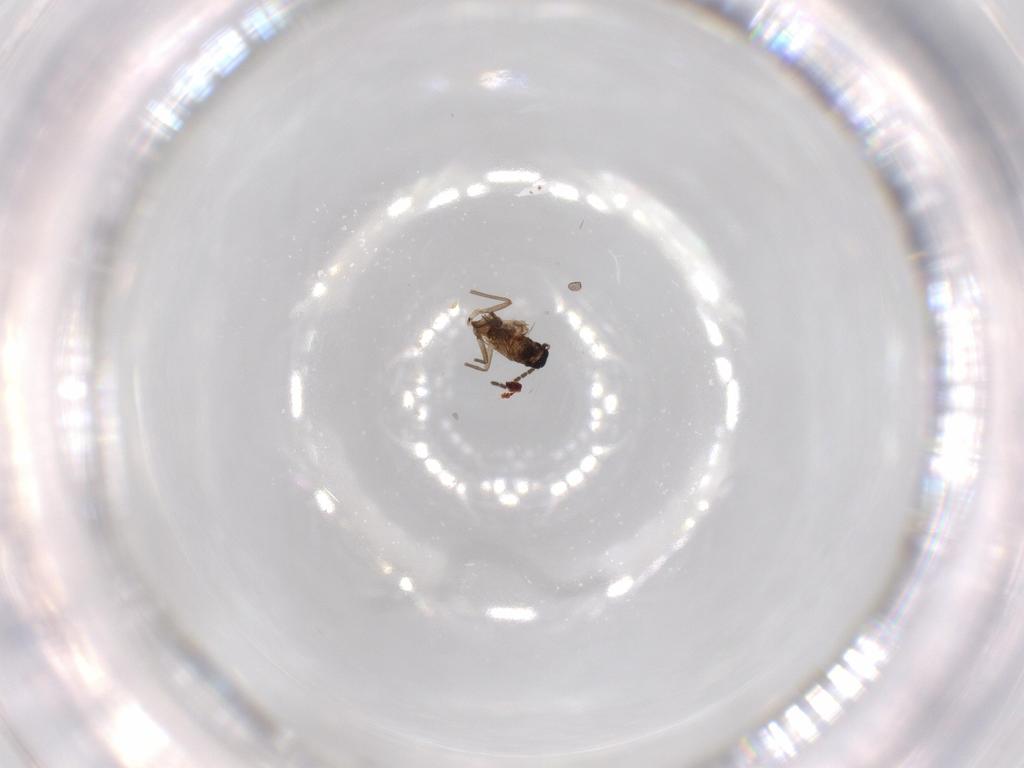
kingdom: Animalia
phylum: Arthropoda
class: Insecta
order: Diptera
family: Sciaridae
